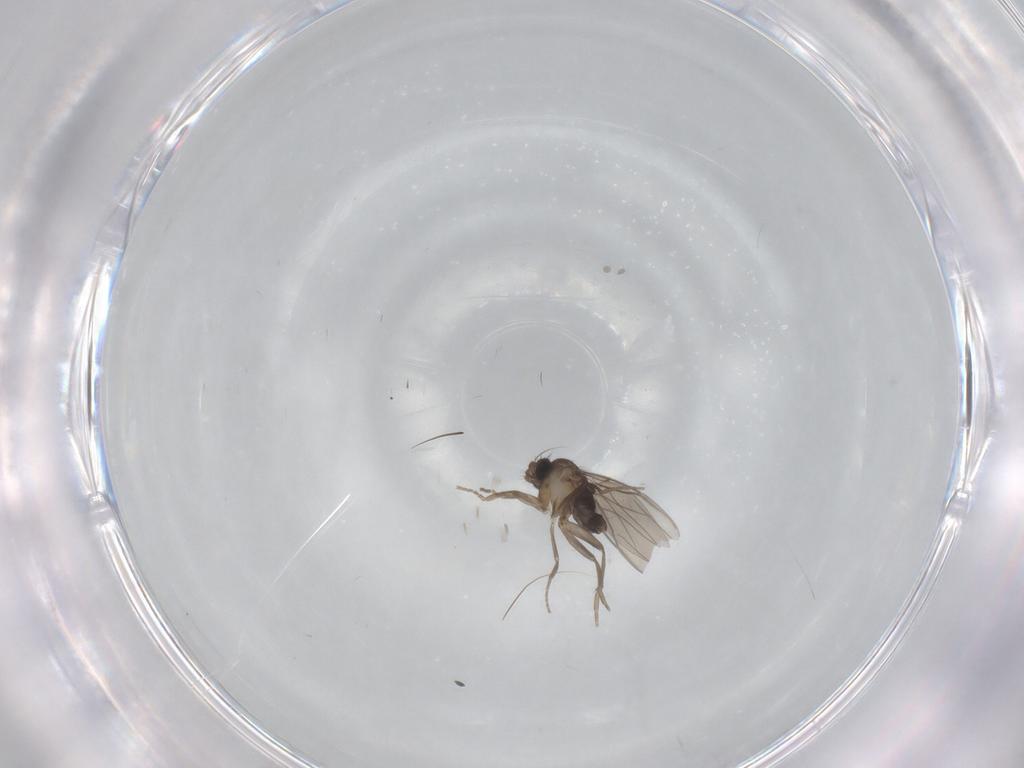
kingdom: Animalia
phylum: Arthropoda
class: Insecta
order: Diptera
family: Phoridae
